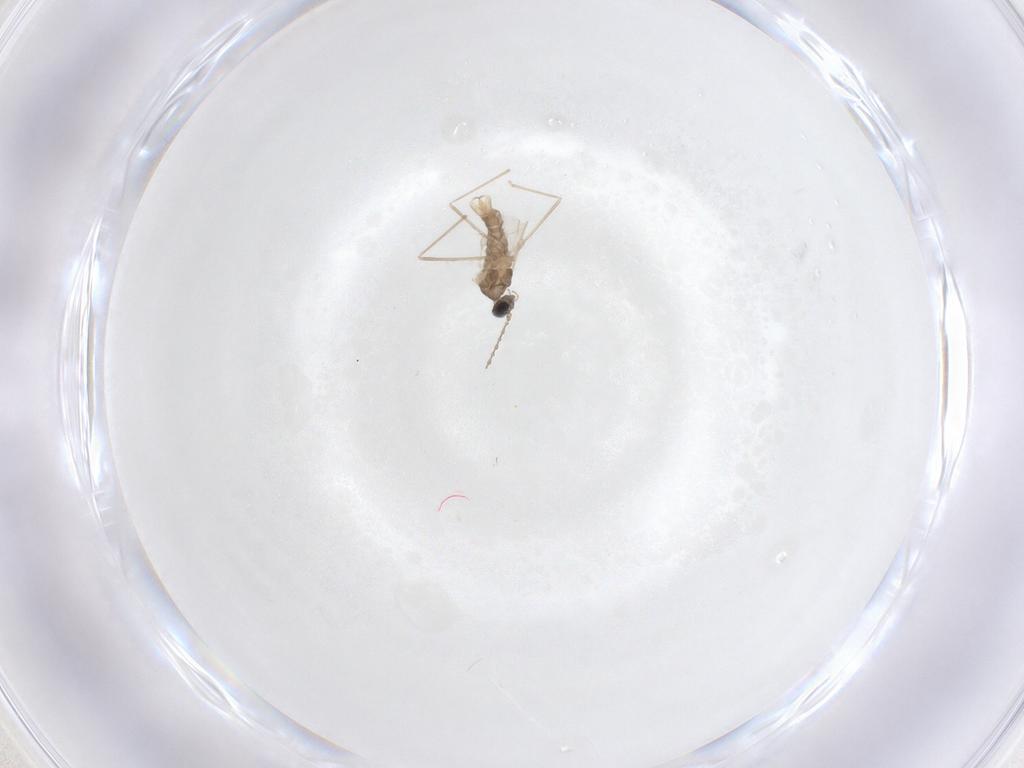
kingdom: Animalia
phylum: Arthropoda
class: Insecta
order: Diptera
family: Cecidomyiidae
